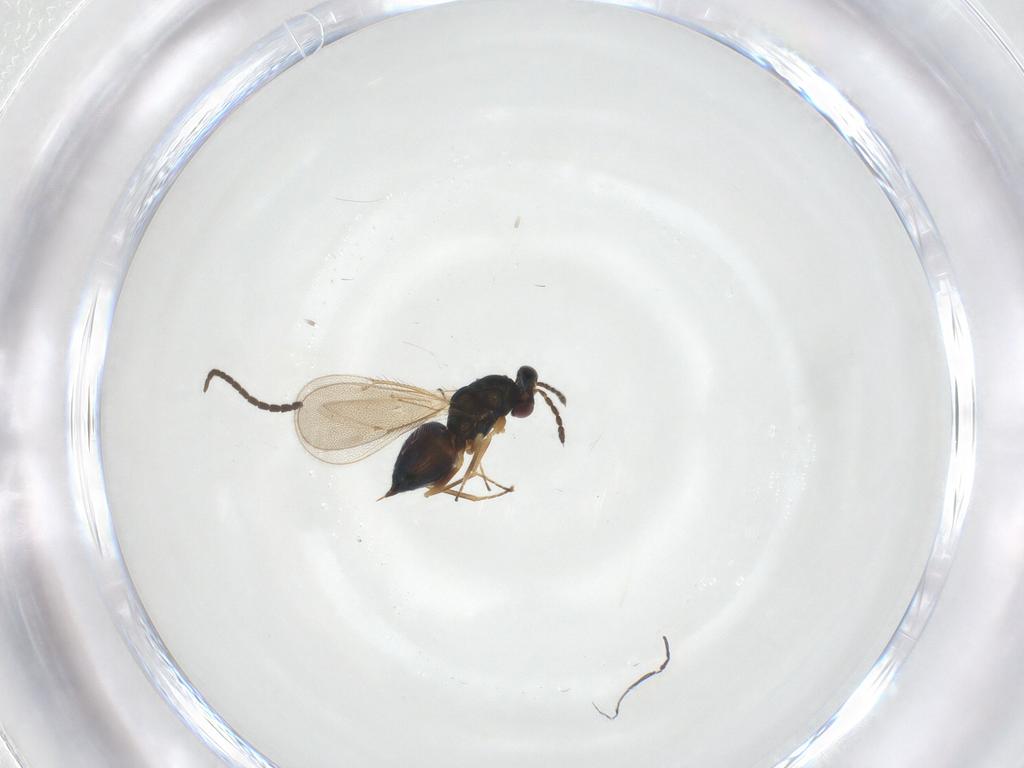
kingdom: Animalia
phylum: Arthropoda
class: Insecta
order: Hymenoptera
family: Eulophidae
